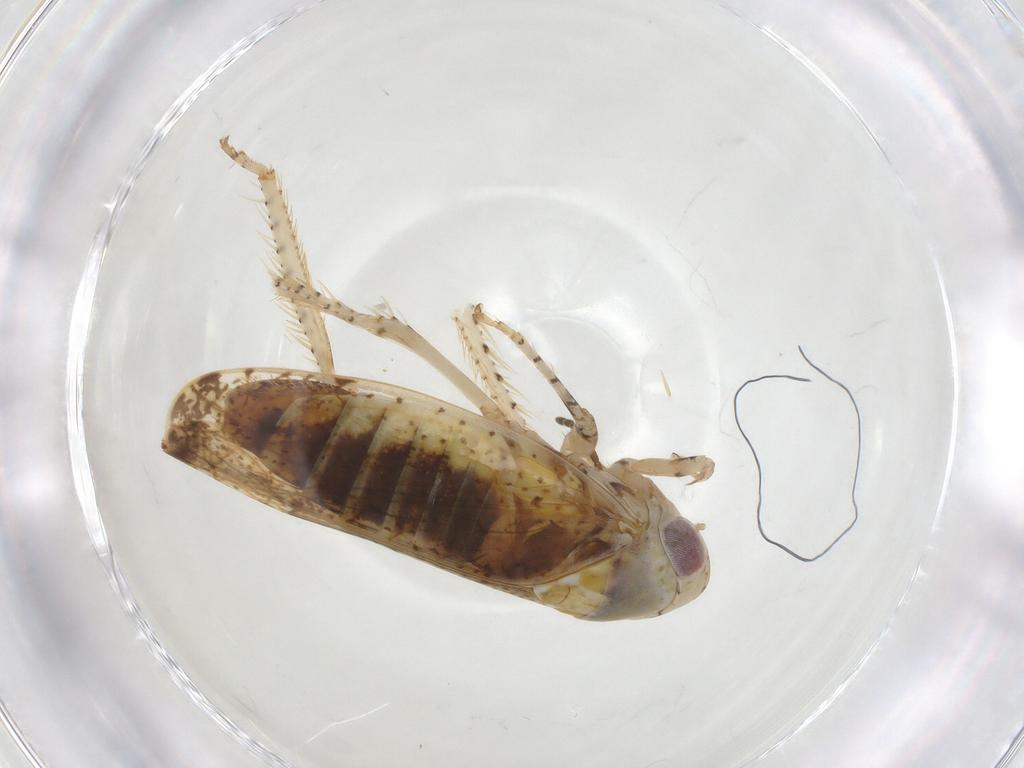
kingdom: Animalia
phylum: Arthropoda
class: Insecta
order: Hemiptera
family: Cicadellidae
